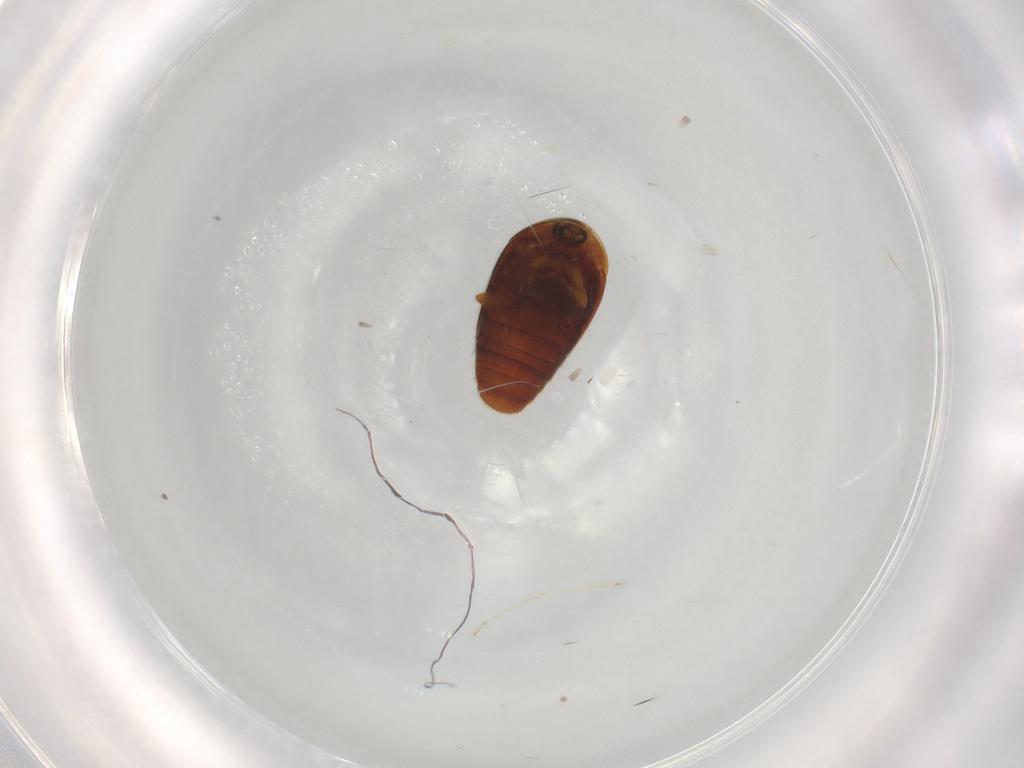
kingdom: Animalia
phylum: Arthropoda
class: Insecta
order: Coleoptera
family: Corylophidae
